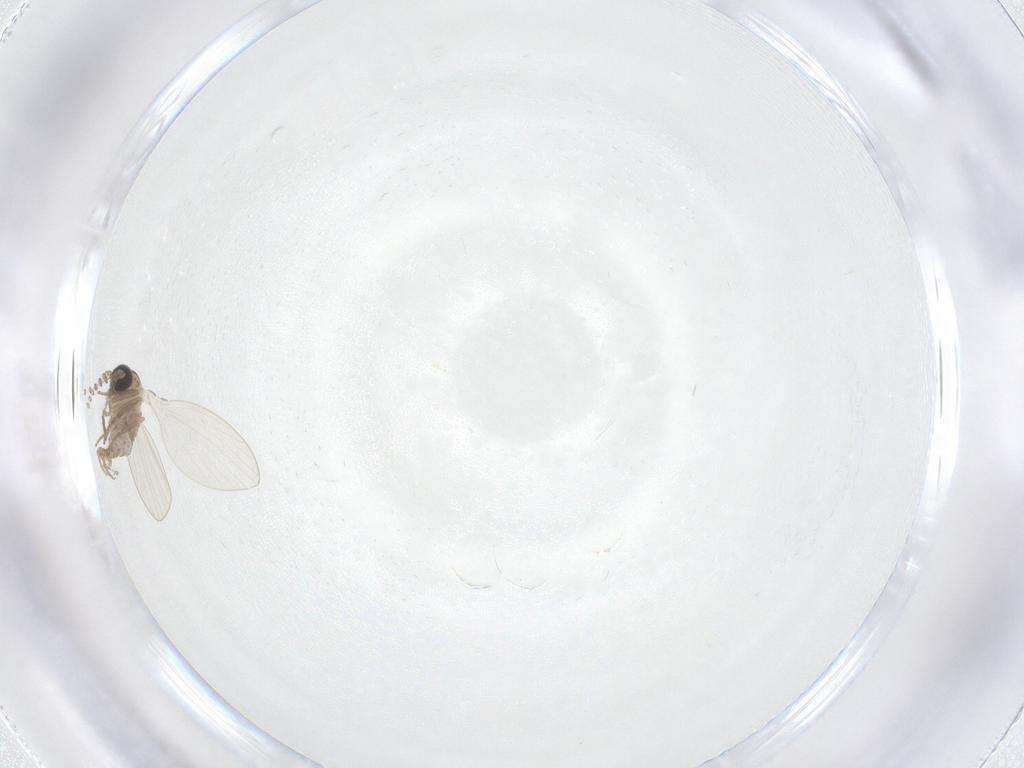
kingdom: Animalia
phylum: Arthropoda
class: Insecta
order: Diptera
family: Psychodidae
